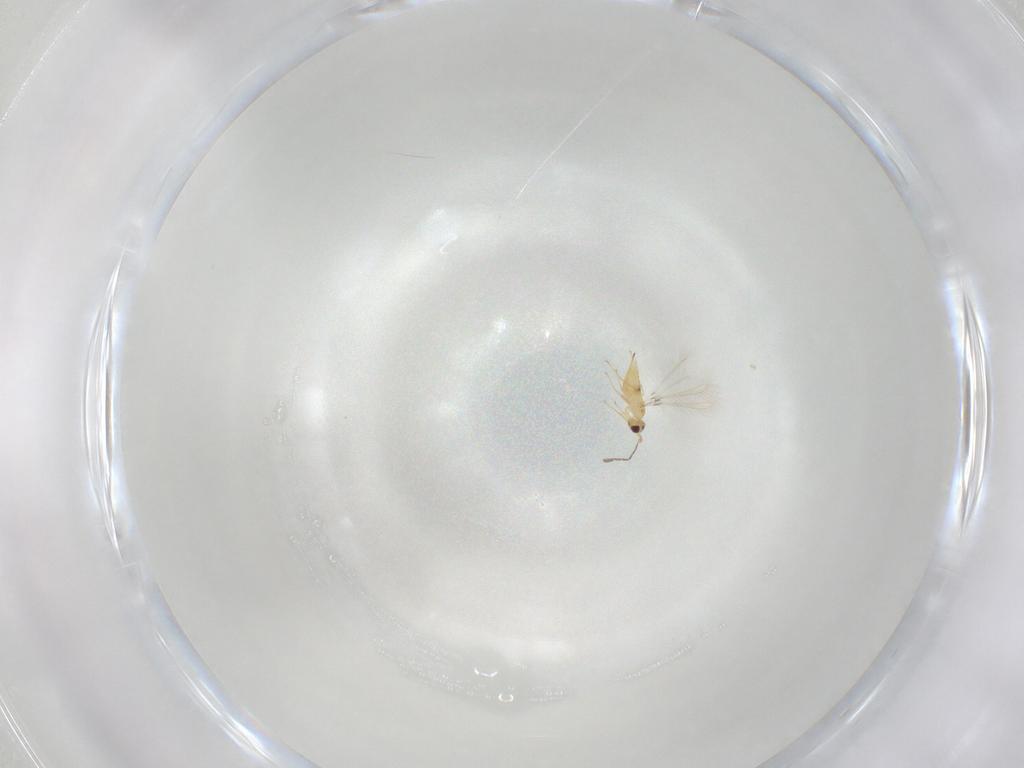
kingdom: Animalia
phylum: Arthropoda
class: Insecta
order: Hymenoptera
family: Mymaridae
